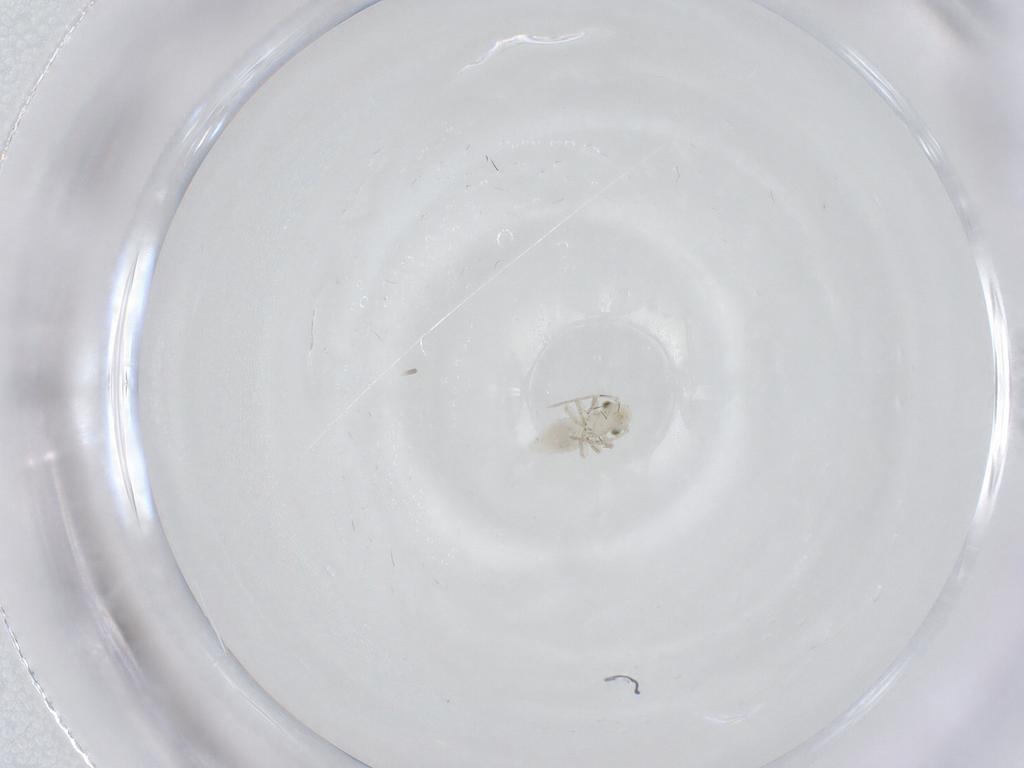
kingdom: Animalia
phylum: Arthropoda
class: Insecta
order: Psocodea
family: Caeciliusidae
